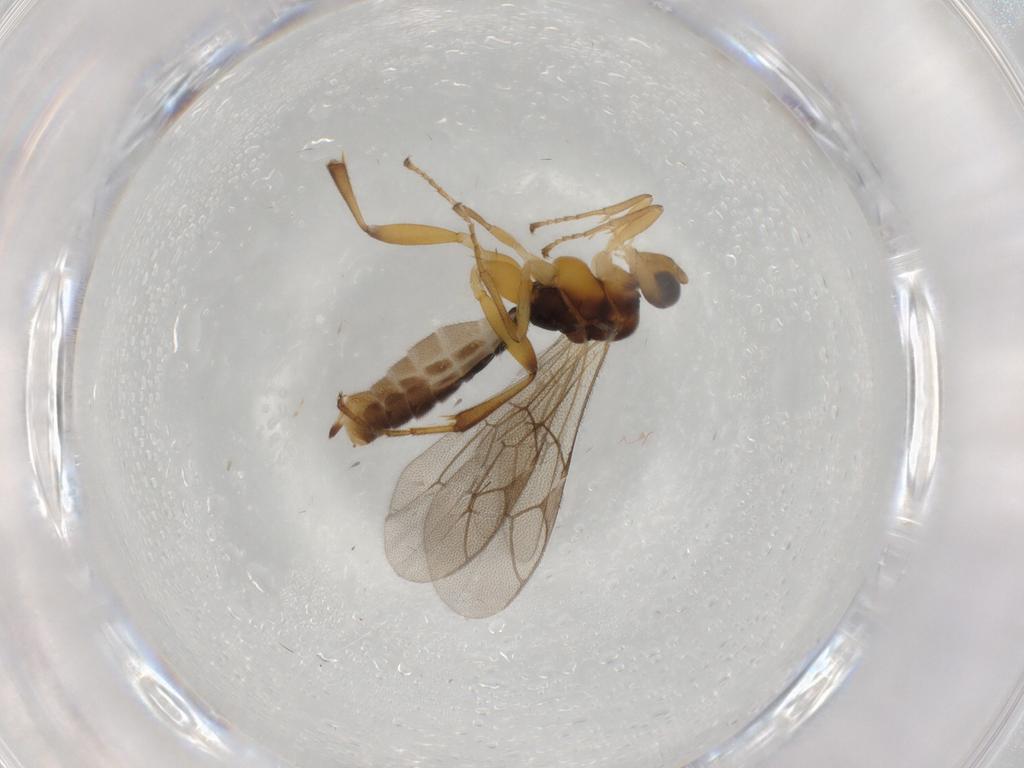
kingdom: Animalia
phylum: Arthropoda
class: Insecta
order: Hymenoptera
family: Ichneumonidae
